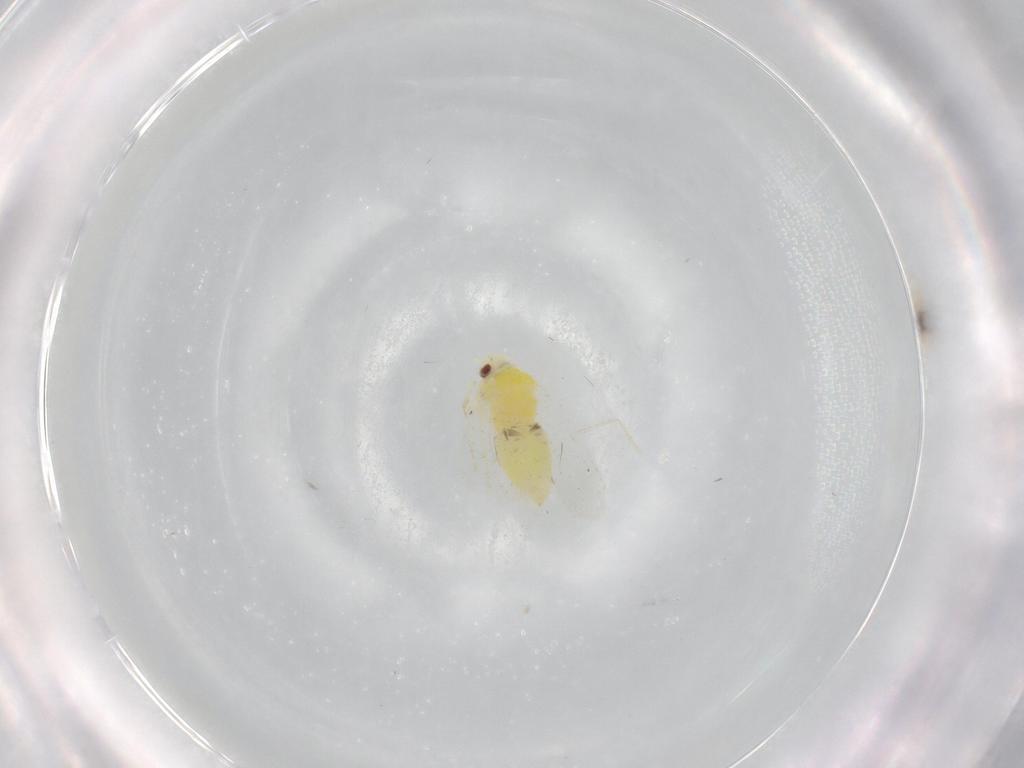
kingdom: Animalia
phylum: Arthropoda
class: Insecta
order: Hemiptera
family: Aleyrodidae
